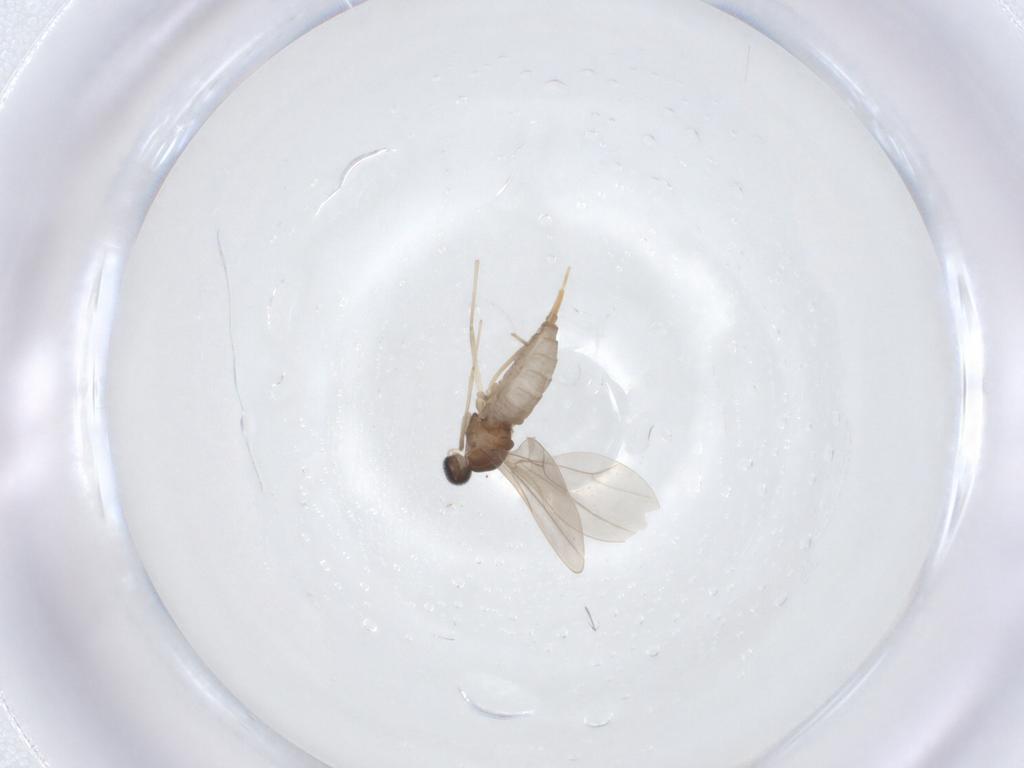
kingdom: Animalia
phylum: Arthropoda
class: Insecta
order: Diptera
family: Cecidomyiidae
